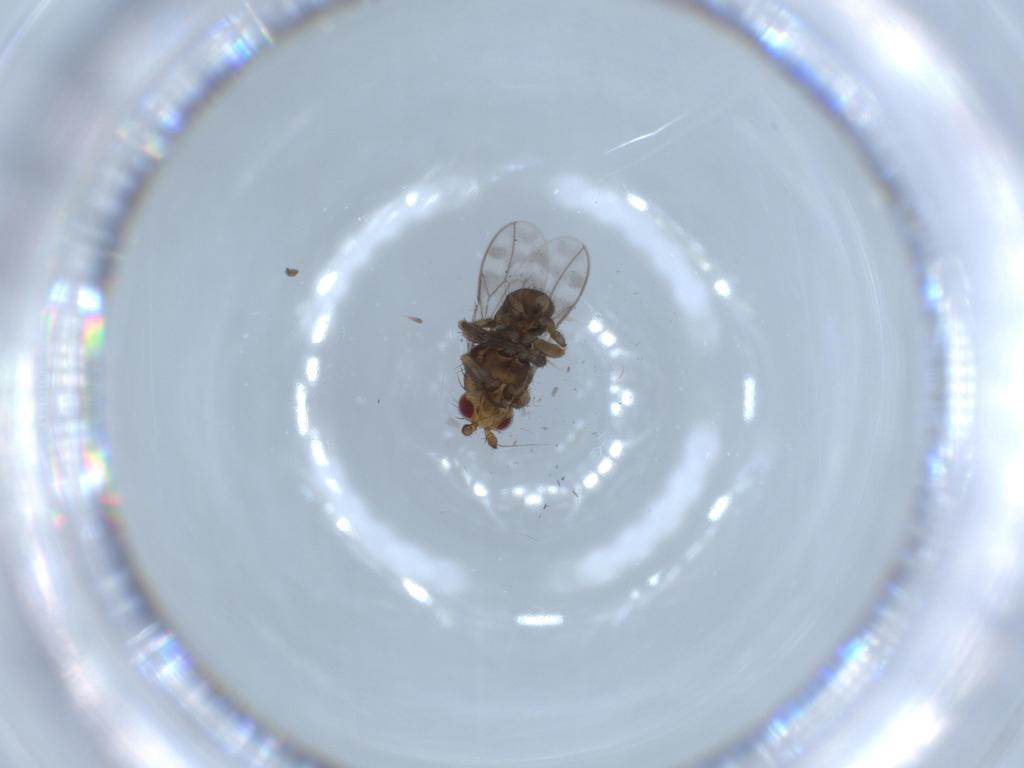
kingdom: Animalia
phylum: Arthropoda
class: Insecta
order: Diptera
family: Sphaeroceridae
